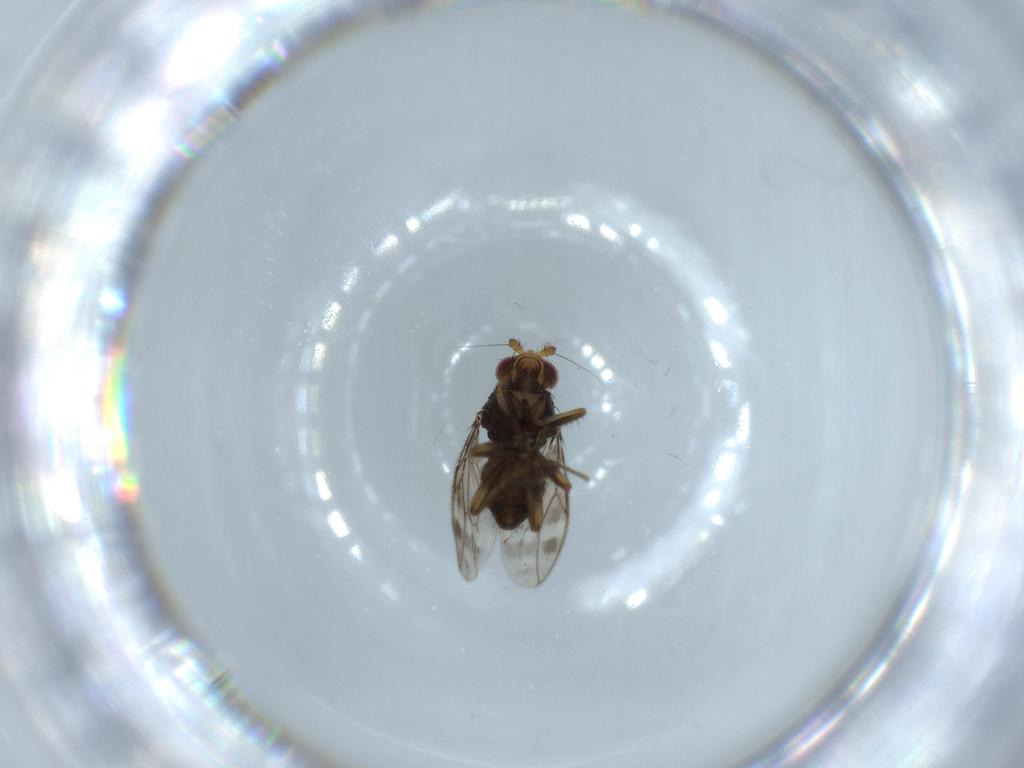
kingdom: Animalia
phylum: Arthropoda
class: Insecta
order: Diptera
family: Sphaeroceridae
